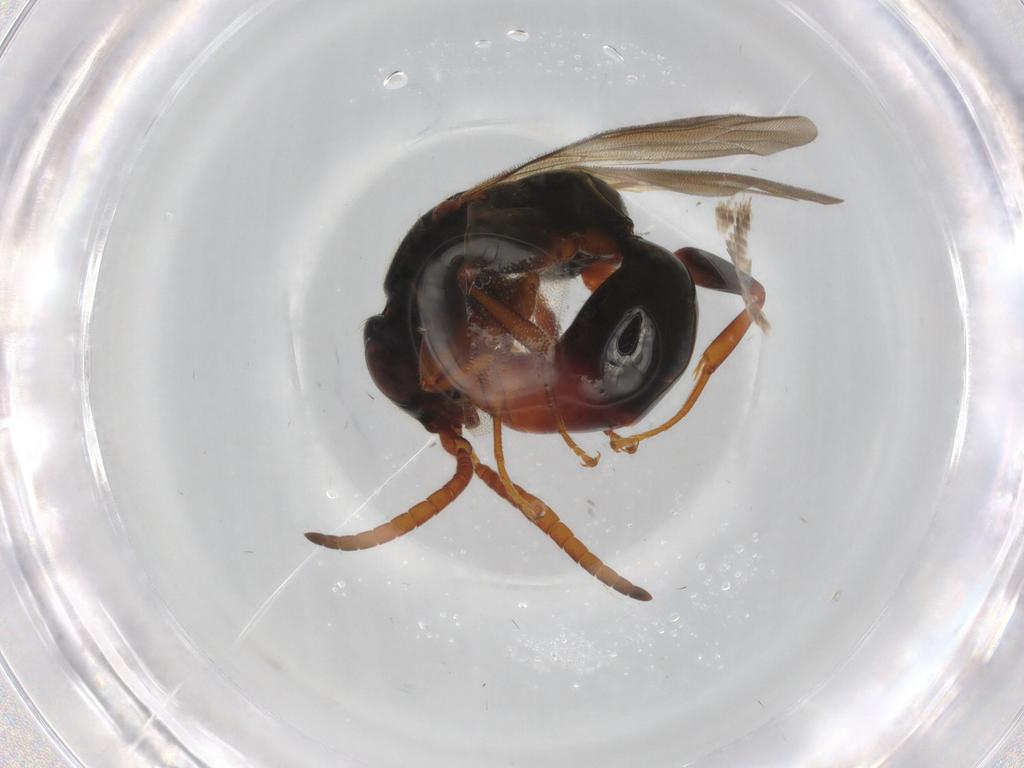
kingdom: Animalia
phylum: Arthropoda
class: Insecta
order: Hymenoptera
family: Bethylidae
